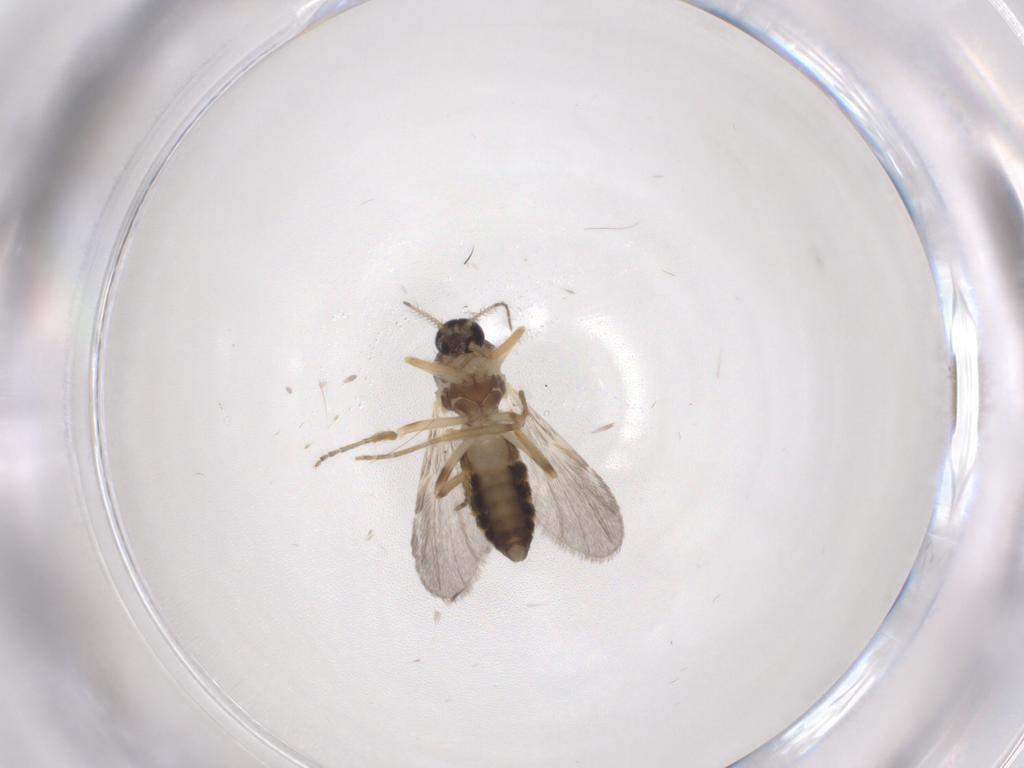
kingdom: Animalia
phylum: Arthropoda
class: Insecta
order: Diptera
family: Ceratopogonidae
